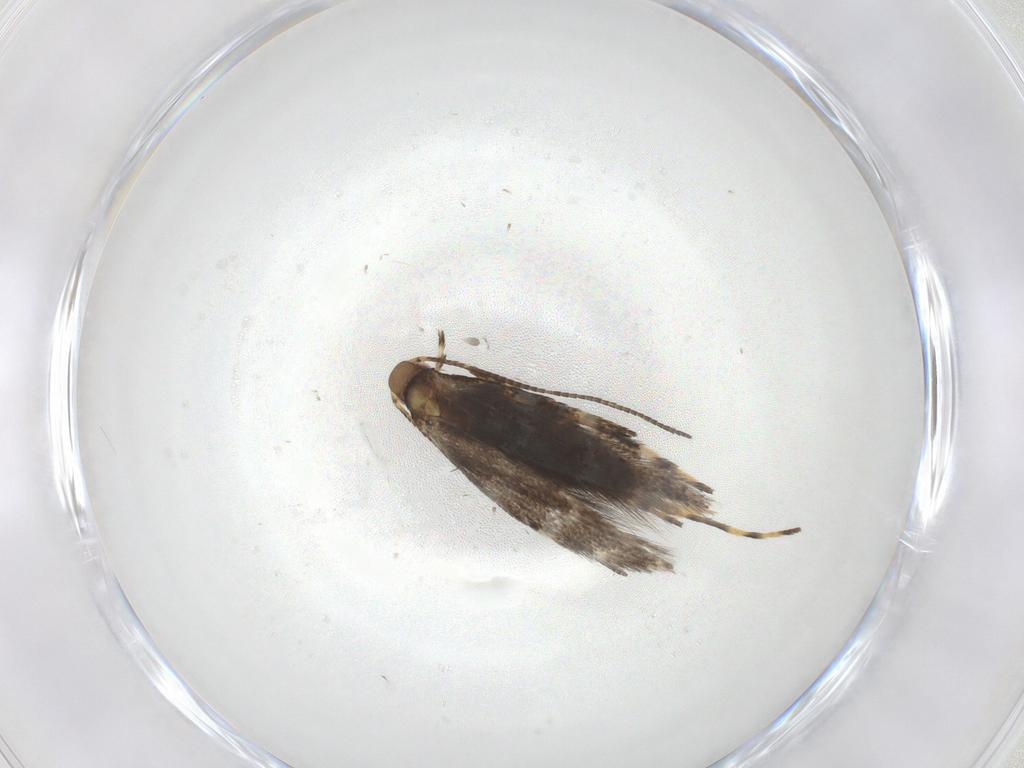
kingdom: Animalia
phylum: Arthropoda
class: Insecta
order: Lepidoptera
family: Gracillariidae
